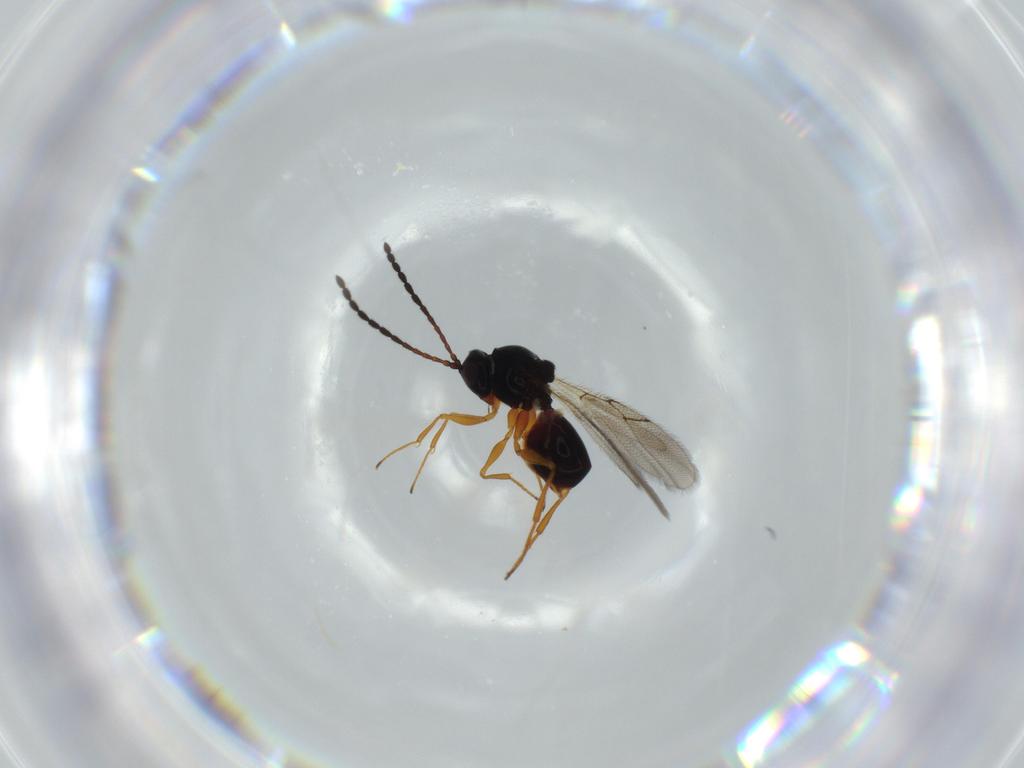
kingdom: Animalia
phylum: Arthropoda
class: Insecta
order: Hymenoptera
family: Figitidae
